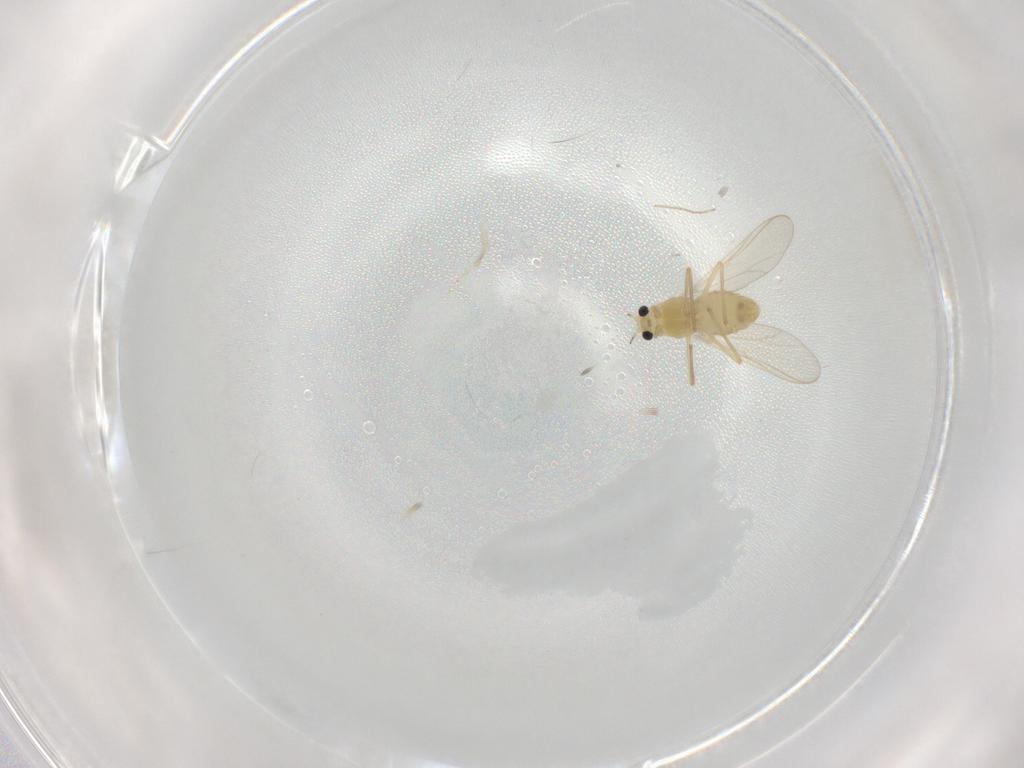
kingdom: Animalia
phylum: Arthropoda
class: Insecta
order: Diptera
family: Chironomidae
